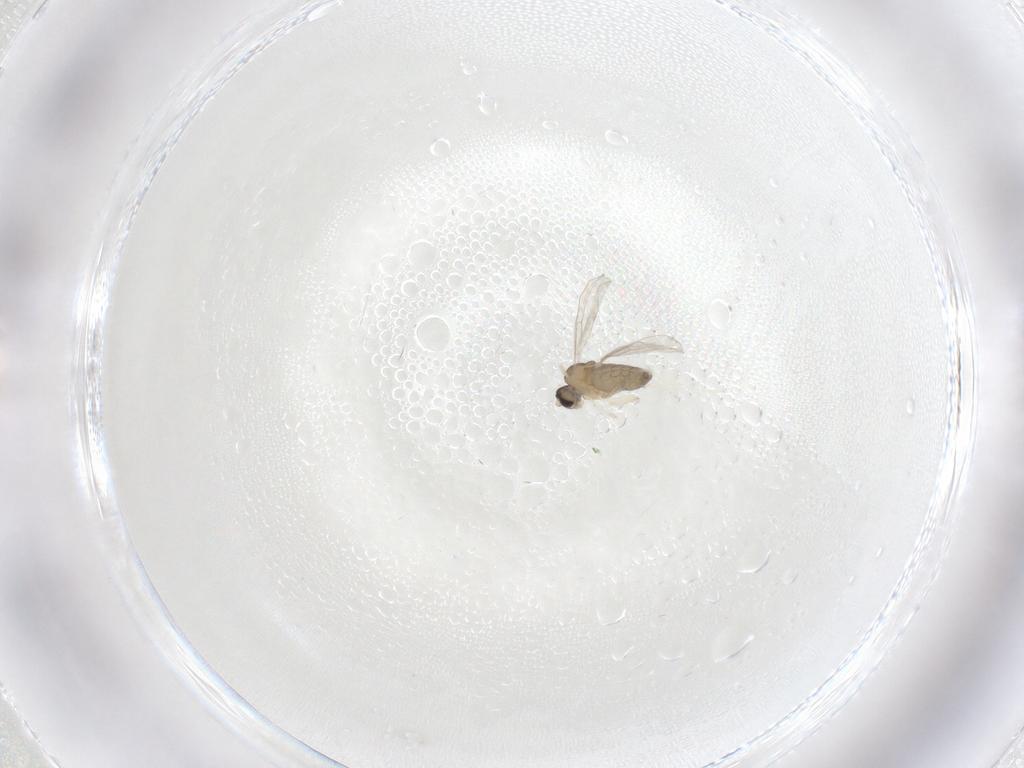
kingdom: Animalia
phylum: Arthropoda
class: Insecta
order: Diptera
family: Cecidomyiidae
